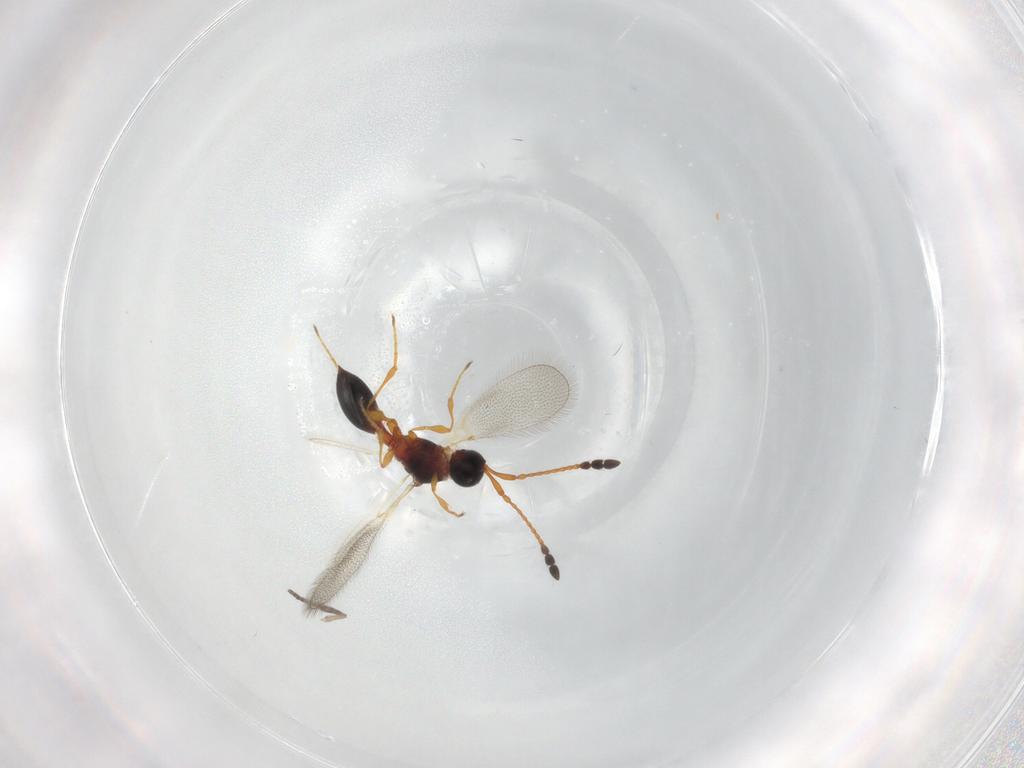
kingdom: Animalia
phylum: Arthropoda
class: Insecta
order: Hymenoptera
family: Diapriidae
